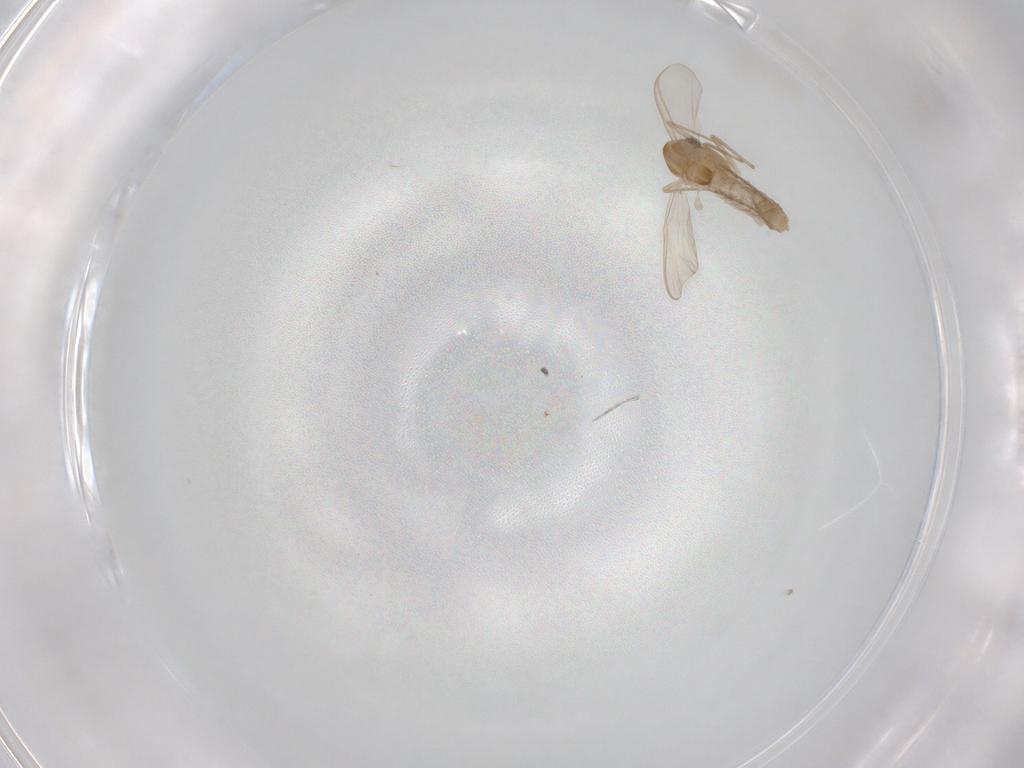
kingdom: Animalia
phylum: Arthropoda
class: Insecta
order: Diptera
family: Chironomidae
